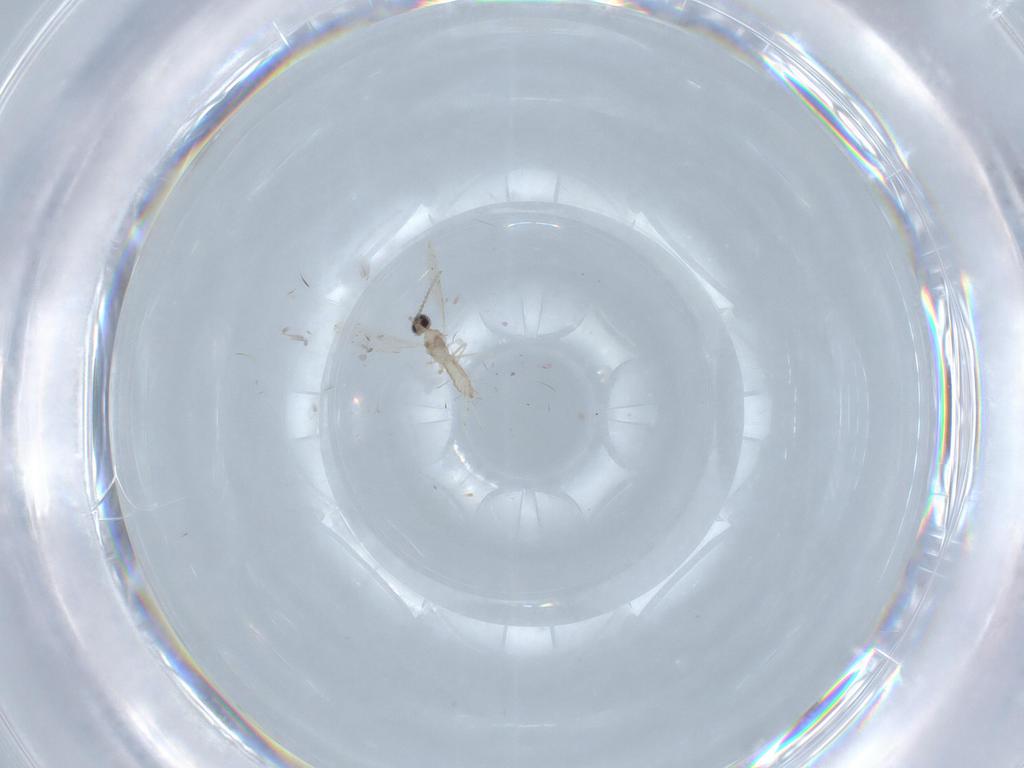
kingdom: Animalia
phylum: Arthropoda
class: Insecta
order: Diptera
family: Cecidomyiidae
